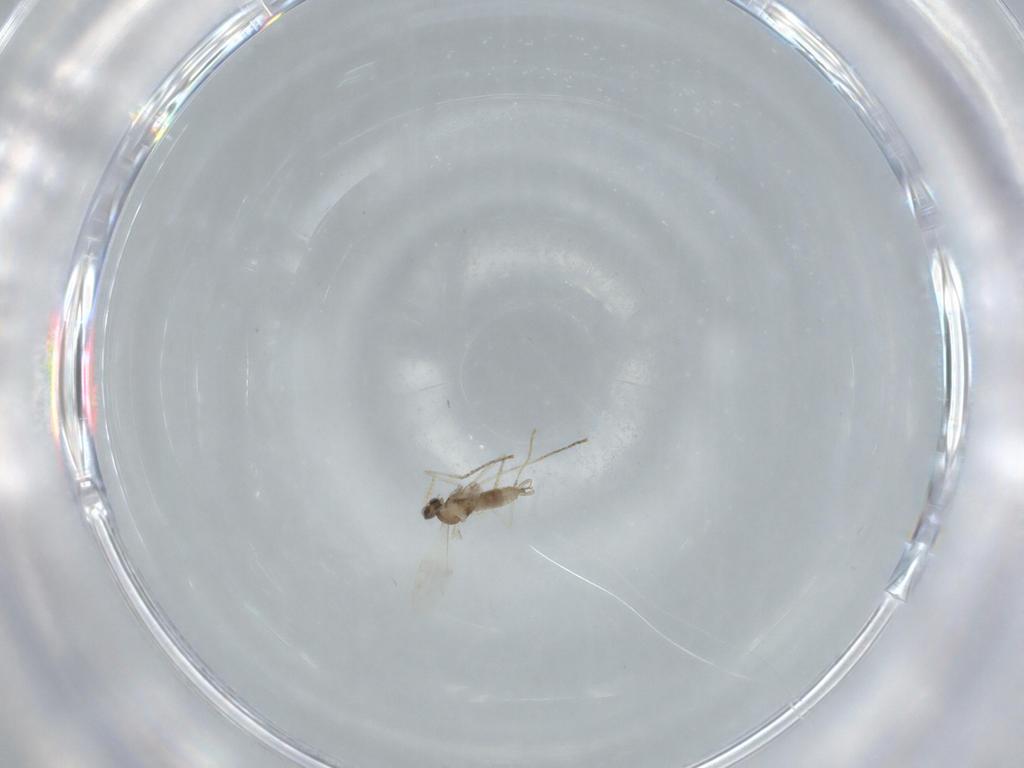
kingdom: Animalia
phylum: Arthropoda
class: Insecta
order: Diptera
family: Cecidomyiidae
